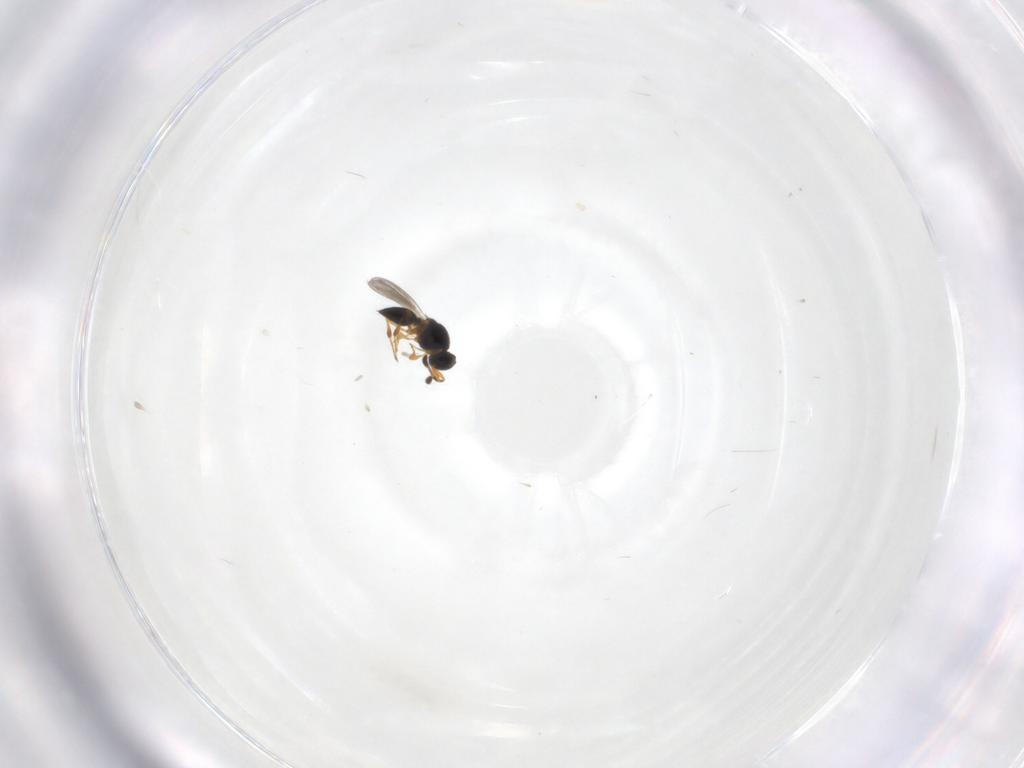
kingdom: Animalia
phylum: Arthropoda
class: Insecta
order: Hymenoptera
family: Platygastridae
